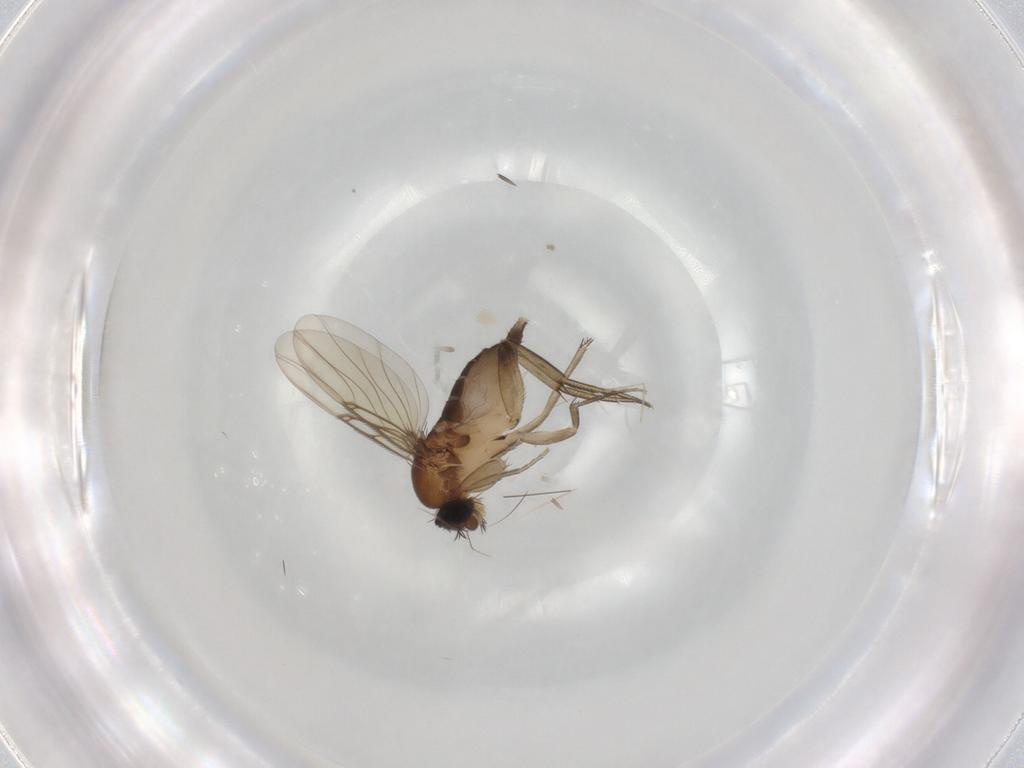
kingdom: Animalia
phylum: Arthropoda
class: Insecta
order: Diptera
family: Phoridae
